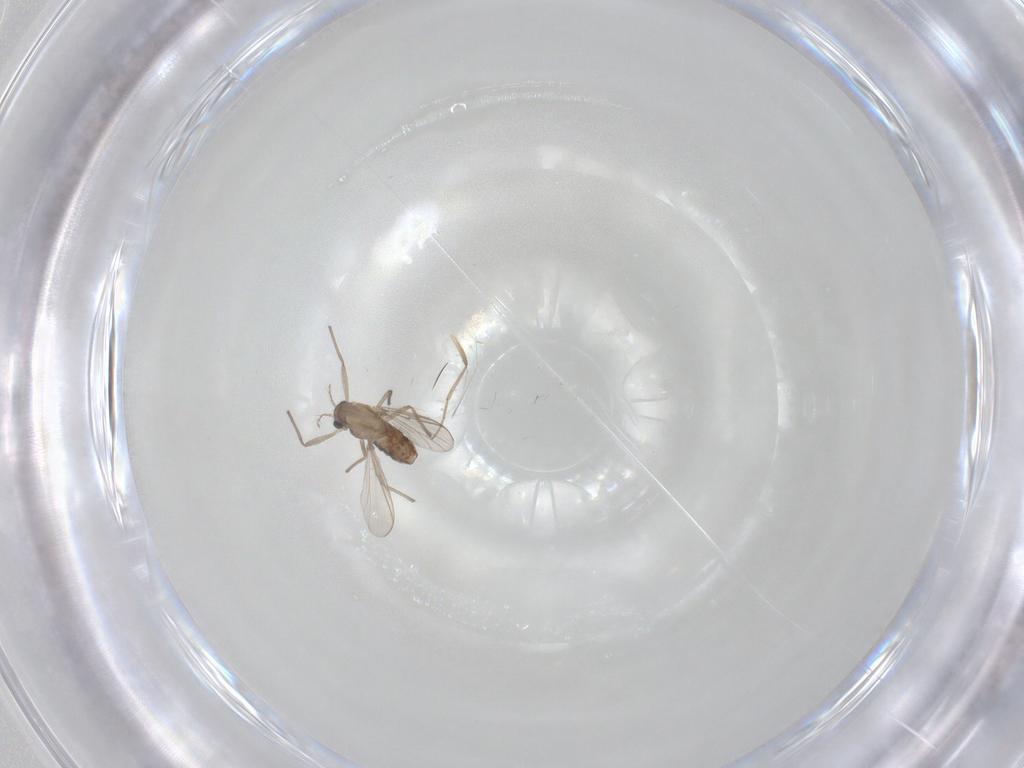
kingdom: Animalia
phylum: Arthropoda
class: Insecta
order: Diptera
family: Chironomidae
